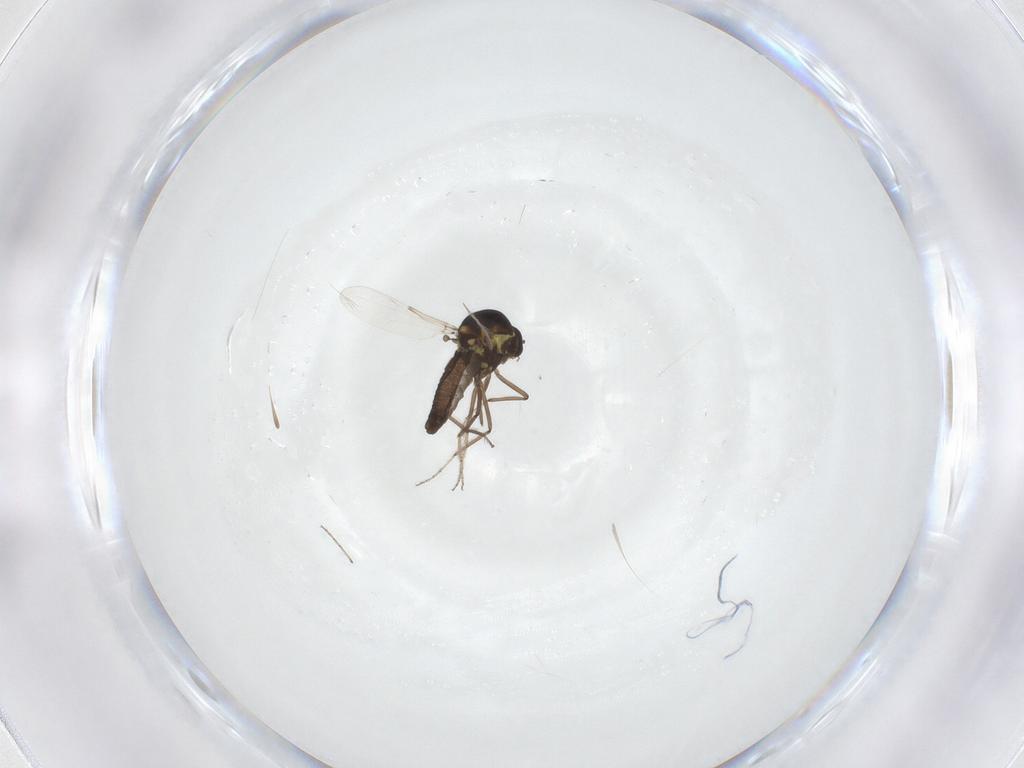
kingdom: Animalia
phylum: Arthropoda
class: Insecta
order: Diptera
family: Ceratopogonidae
